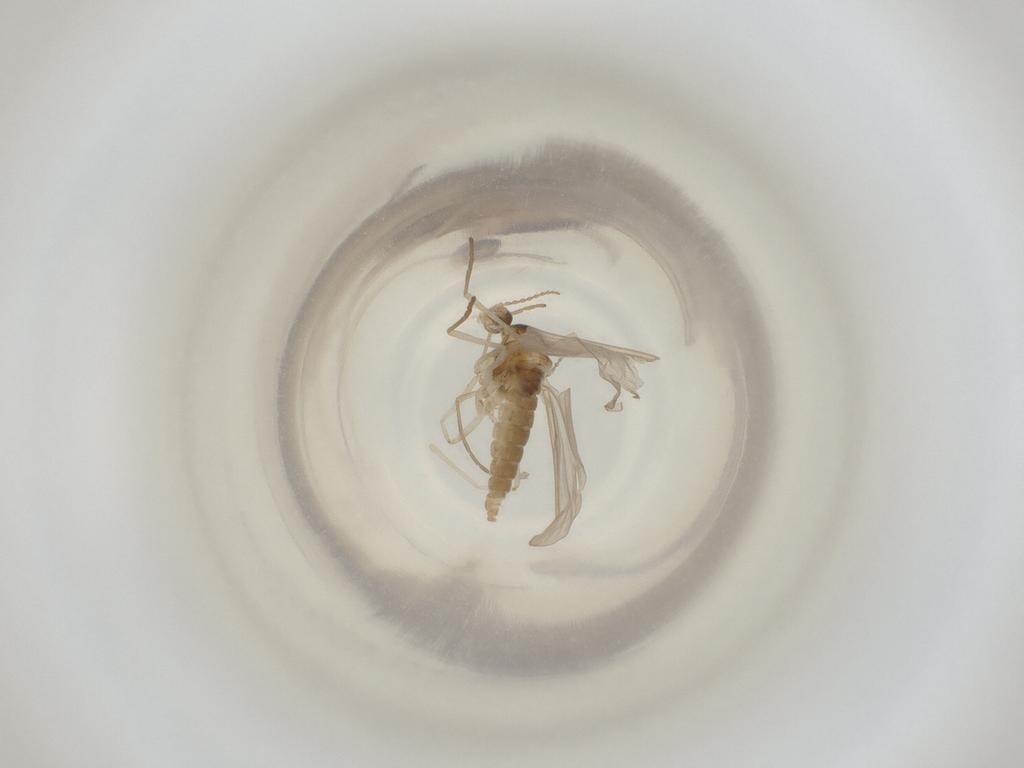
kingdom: Animalia
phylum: Arthropoda
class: Insecta
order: Diptera
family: Cecidomyiidae
